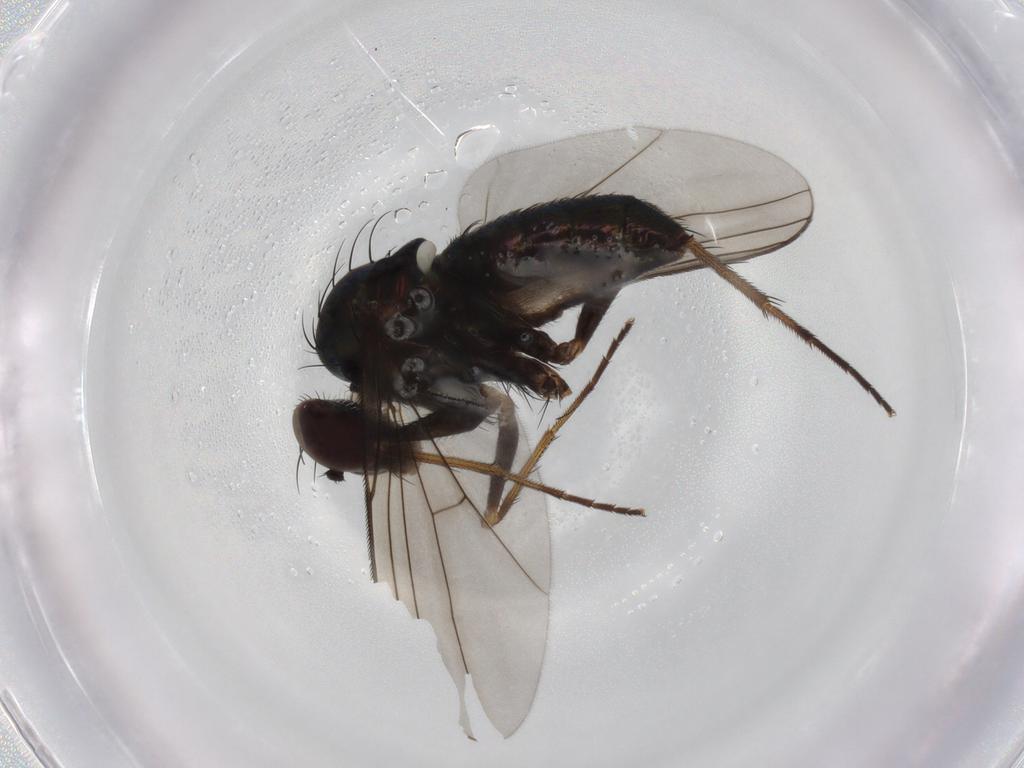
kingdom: Animalia
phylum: Arthropoda
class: Insecta
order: Diptera
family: Dolichopodidae
